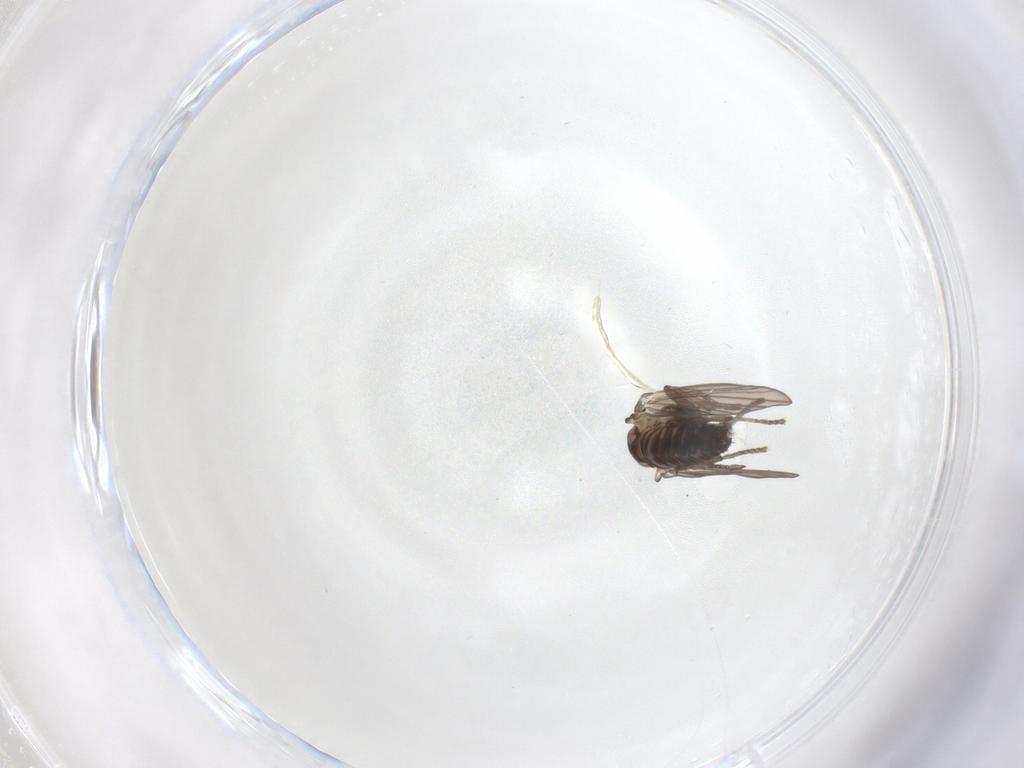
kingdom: Animalia
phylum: Arthropoda
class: Insecta
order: Diptera
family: Psychodidae
